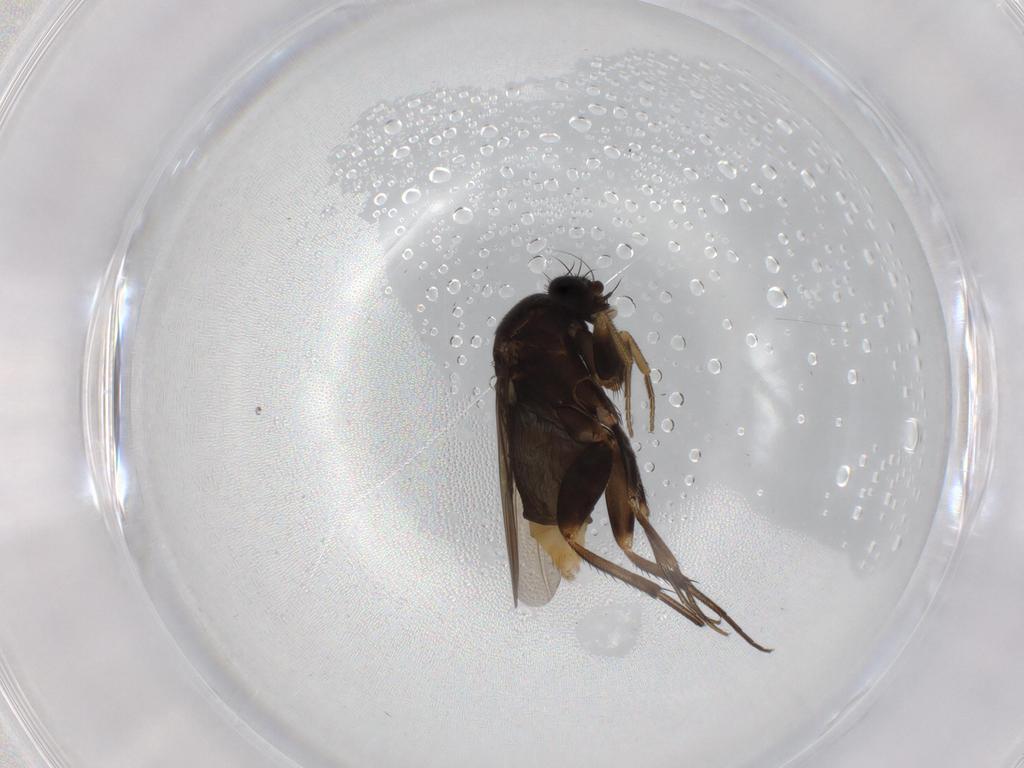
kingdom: Animalia
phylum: Arthropoda
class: Insecta
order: Diptera
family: Phoridae
